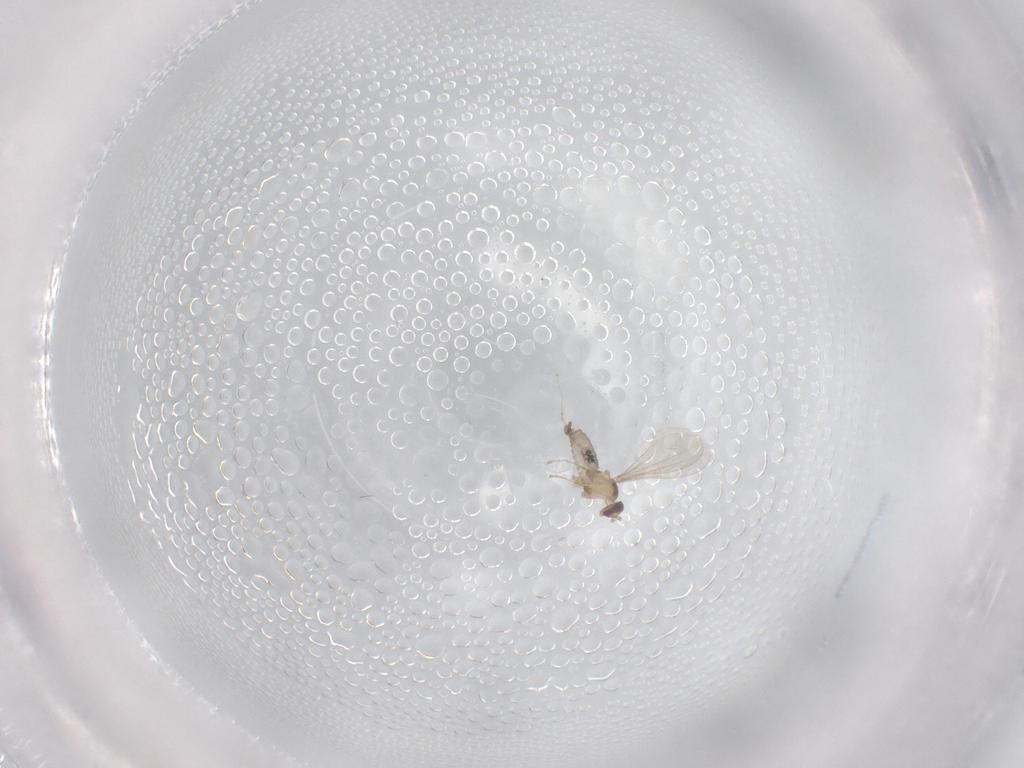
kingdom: Animalia
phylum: Arthropoda
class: Insecta
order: Diptera
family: Cecidomyiidae
